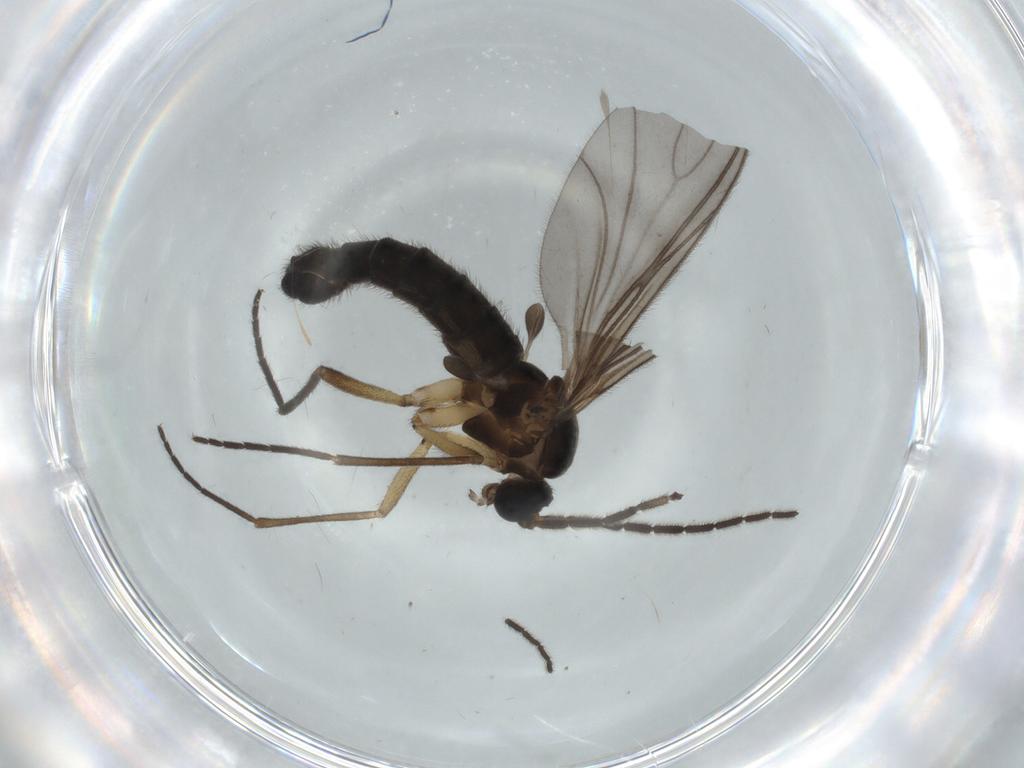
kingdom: Animalia
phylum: Arthropoda
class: Insecta
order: Diptera
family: Sciaridae
